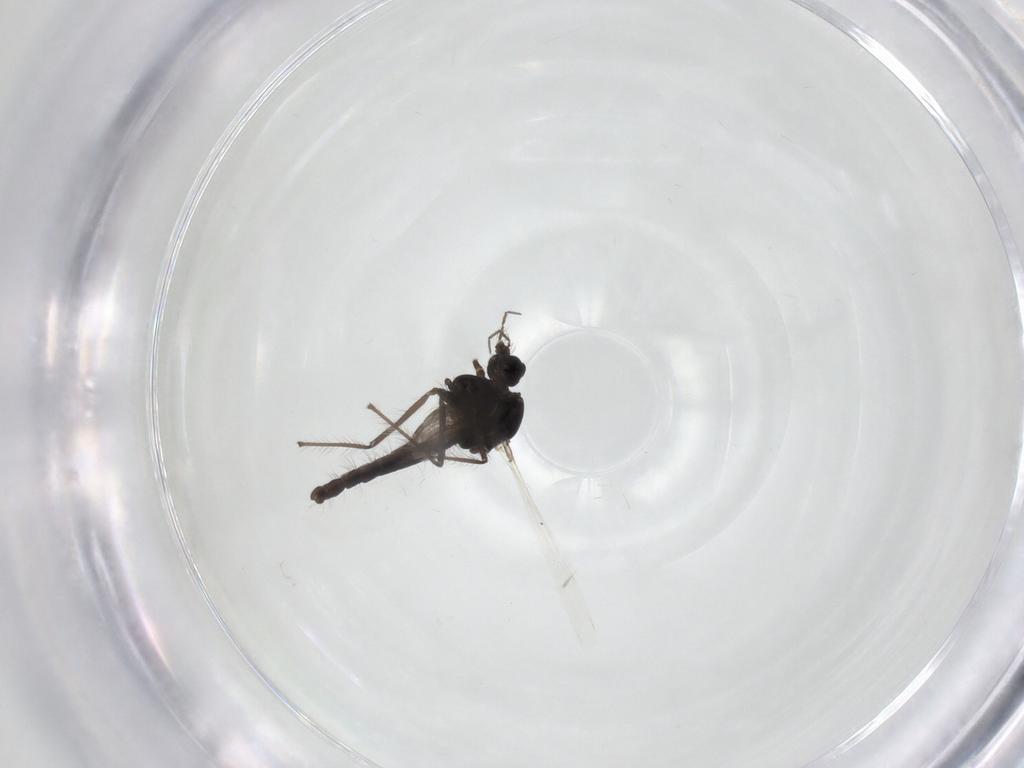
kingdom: Animalia
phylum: Arthropoda
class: Insecta
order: Diptera
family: Chironomidae
